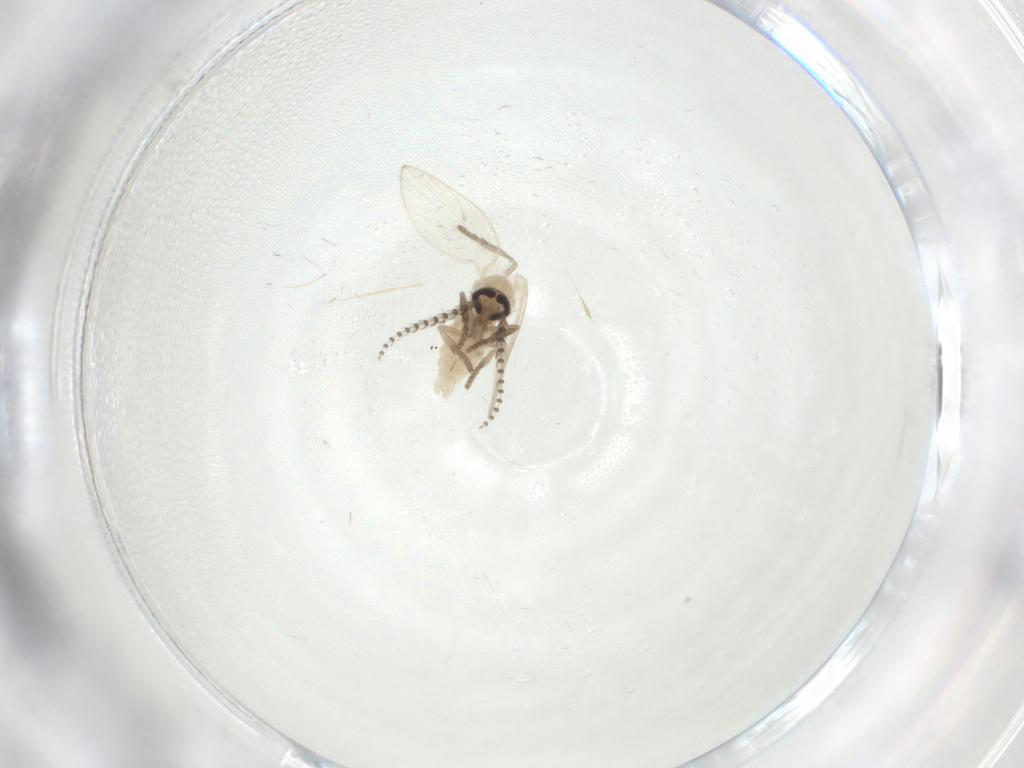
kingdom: Animalia
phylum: Arthropoda
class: Insecta
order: Diptera
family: Psychodidae
